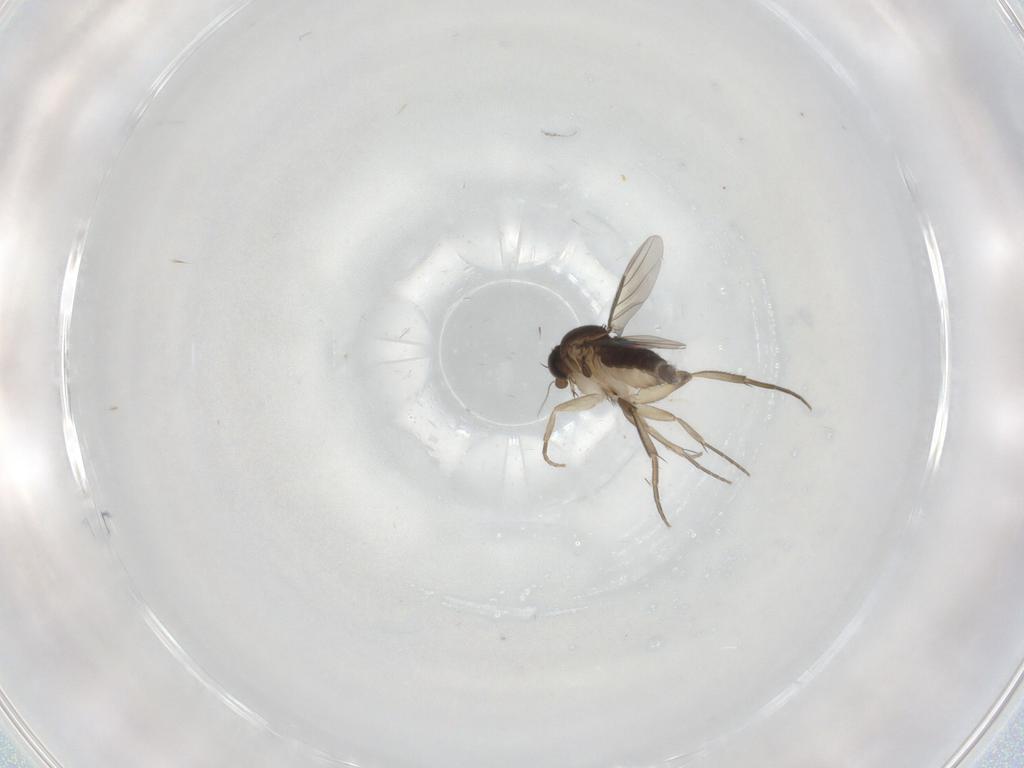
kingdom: Animalia
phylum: Arthropoda
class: Insecta
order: Diptera
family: Phoridae
